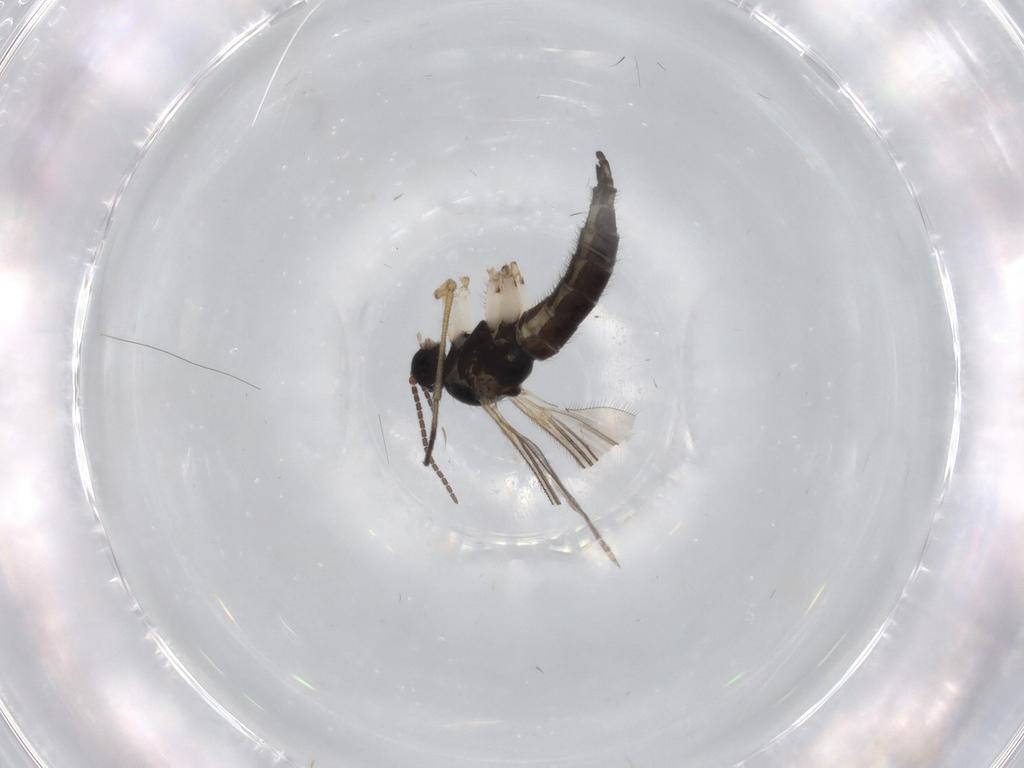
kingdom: Animalia
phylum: Arthropoda
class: Insecta
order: Diptera
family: Sciaridae
